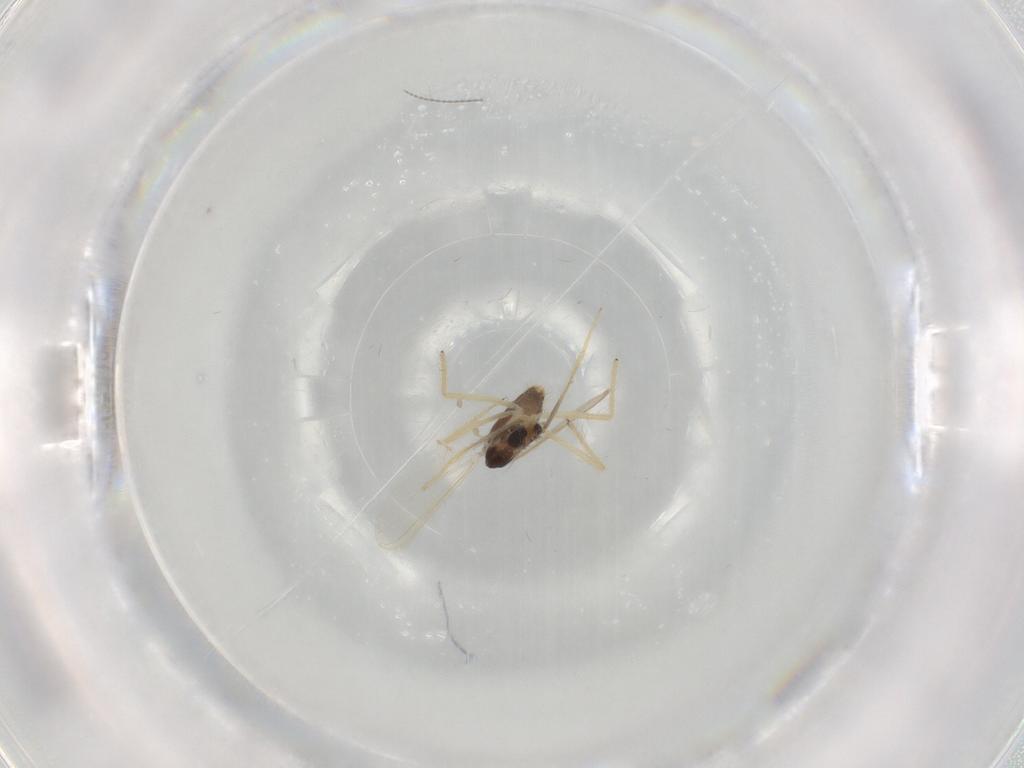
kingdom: Animalia
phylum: Arthropoda
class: Insecta
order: Diptera
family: Chironomidae
